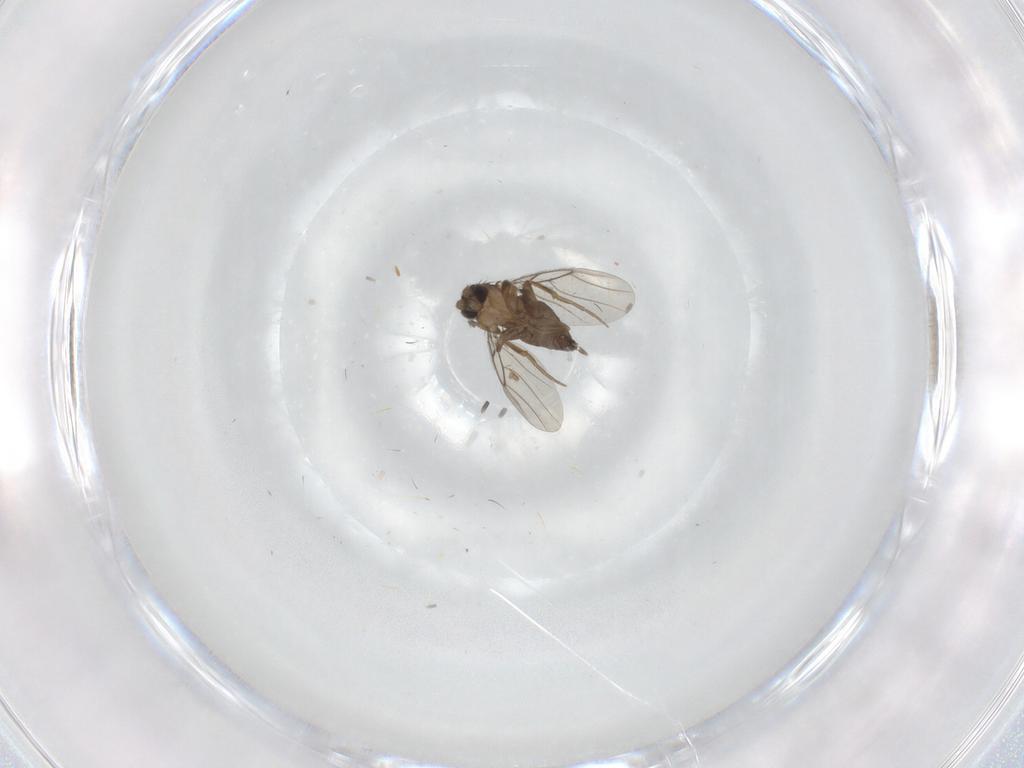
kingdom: Animalia
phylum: Arthropoda
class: Insecta
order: Diptera
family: Phoridae
